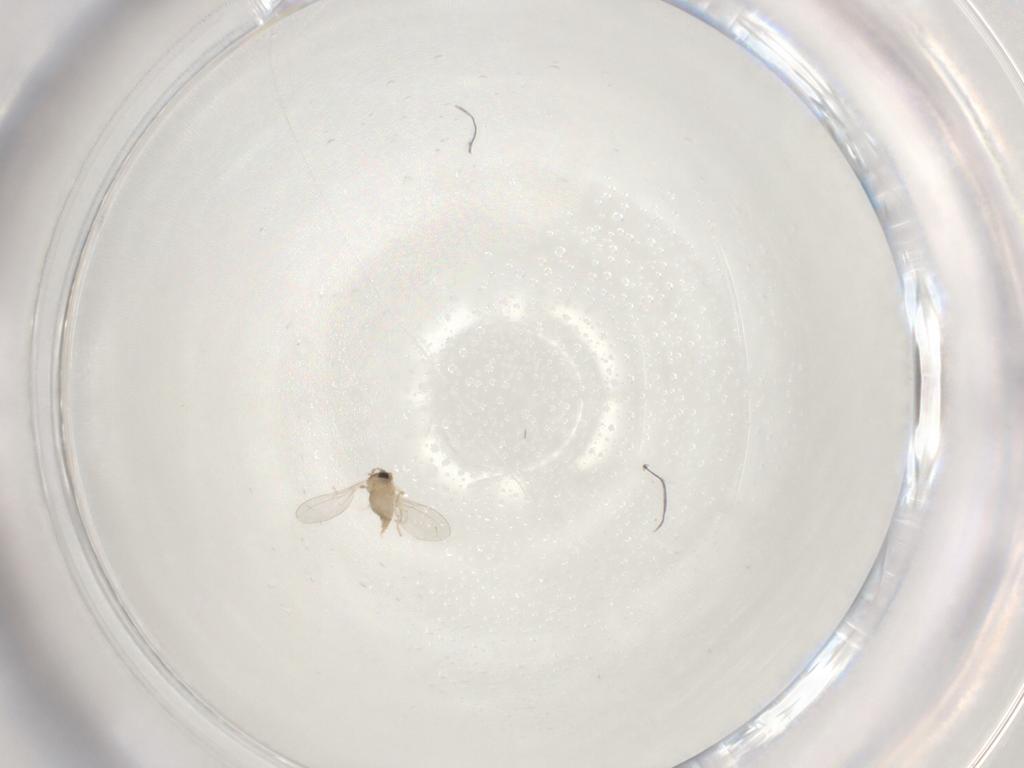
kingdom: Animalia
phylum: Arthropoda
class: Insecta
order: Diptera
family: Cecidomyiidae
